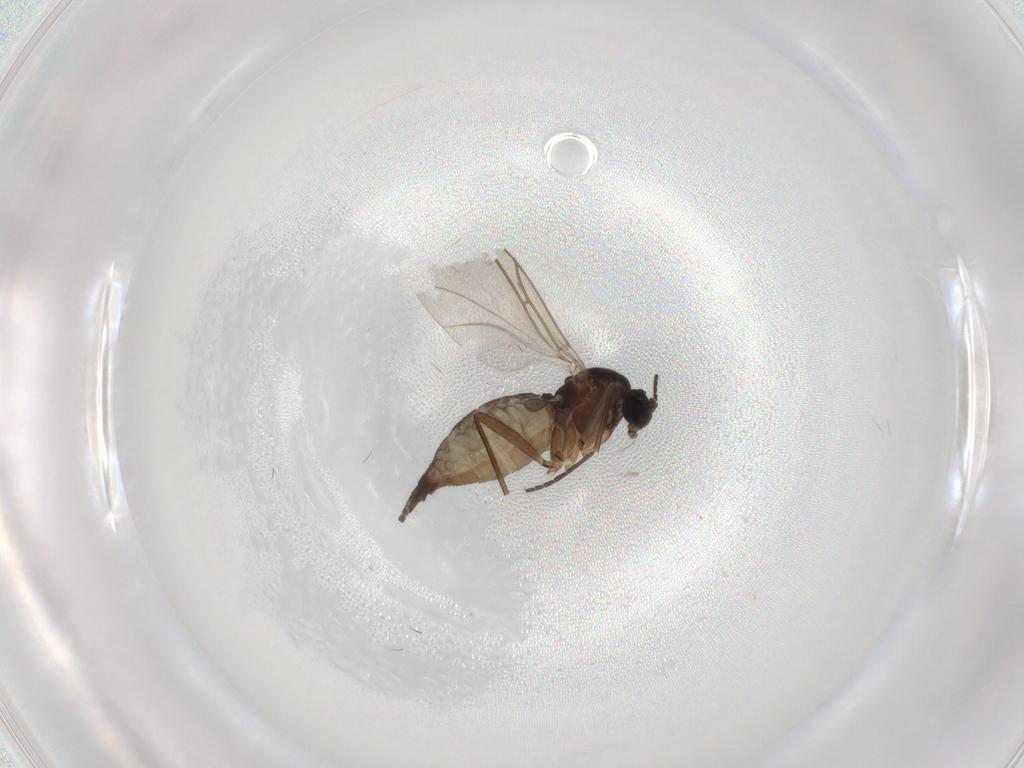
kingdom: Animalia
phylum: Arthropoda
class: Insecta
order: Diptera
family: Sciaridae
